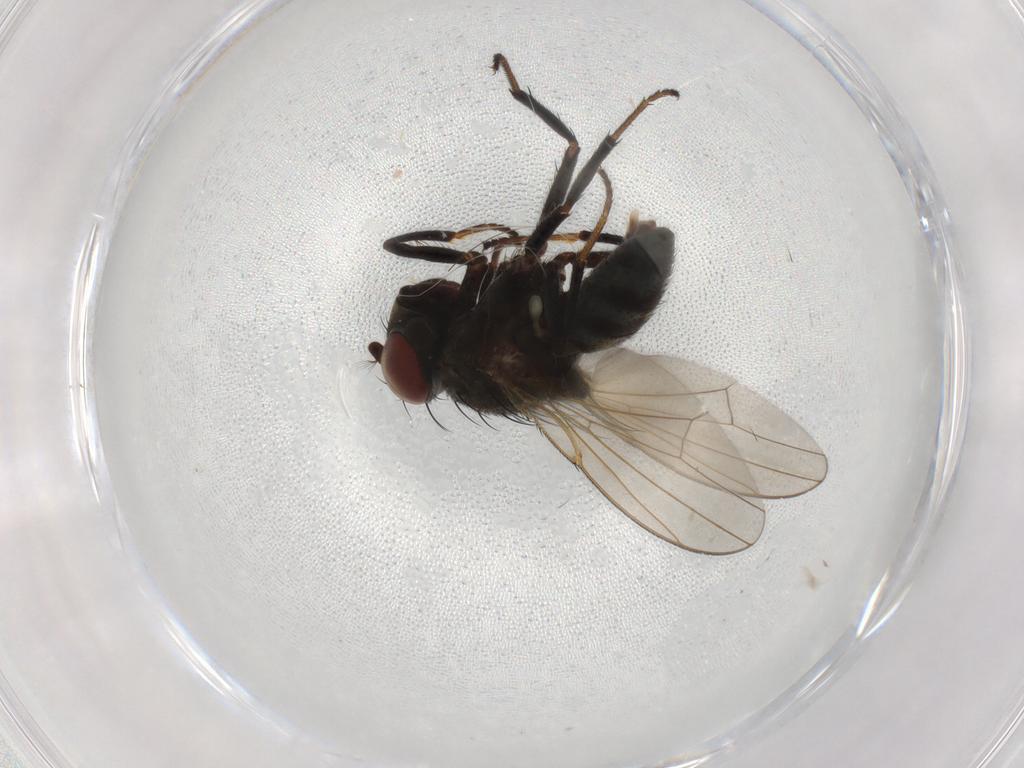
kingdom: Animalia
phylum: Arthropoda
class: Insecta
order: Diptera
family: Ephydridae
